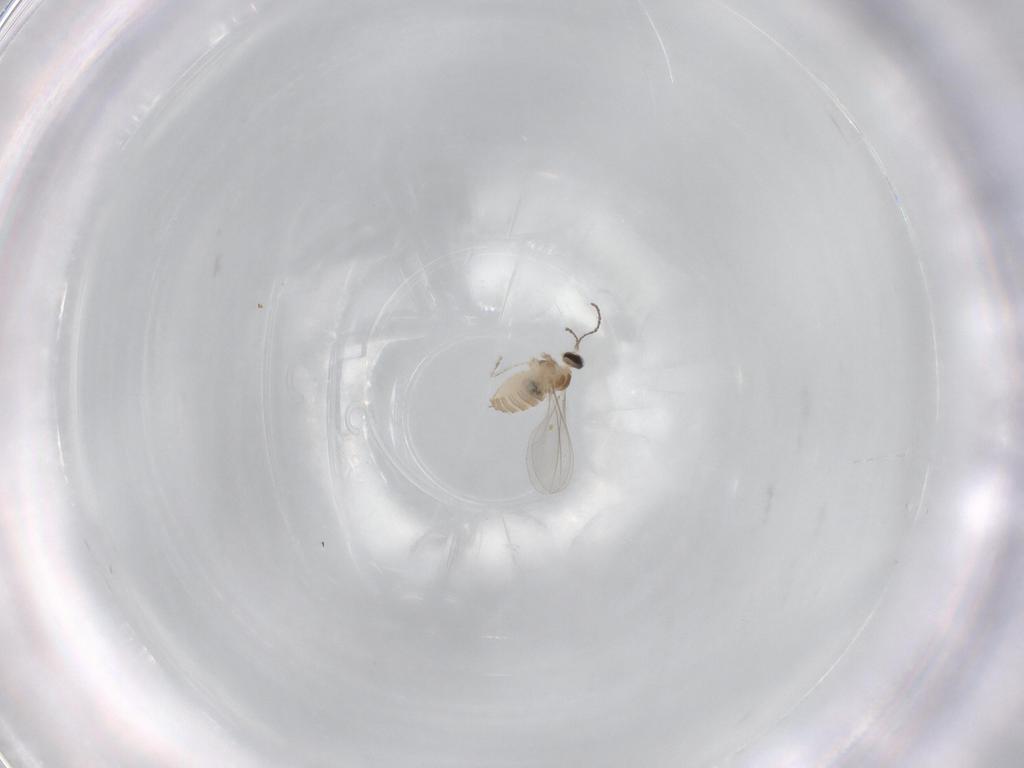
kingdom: Animalia
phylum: Arthropoda
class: Insecta
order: Diptera
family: Cecidomyiidae
